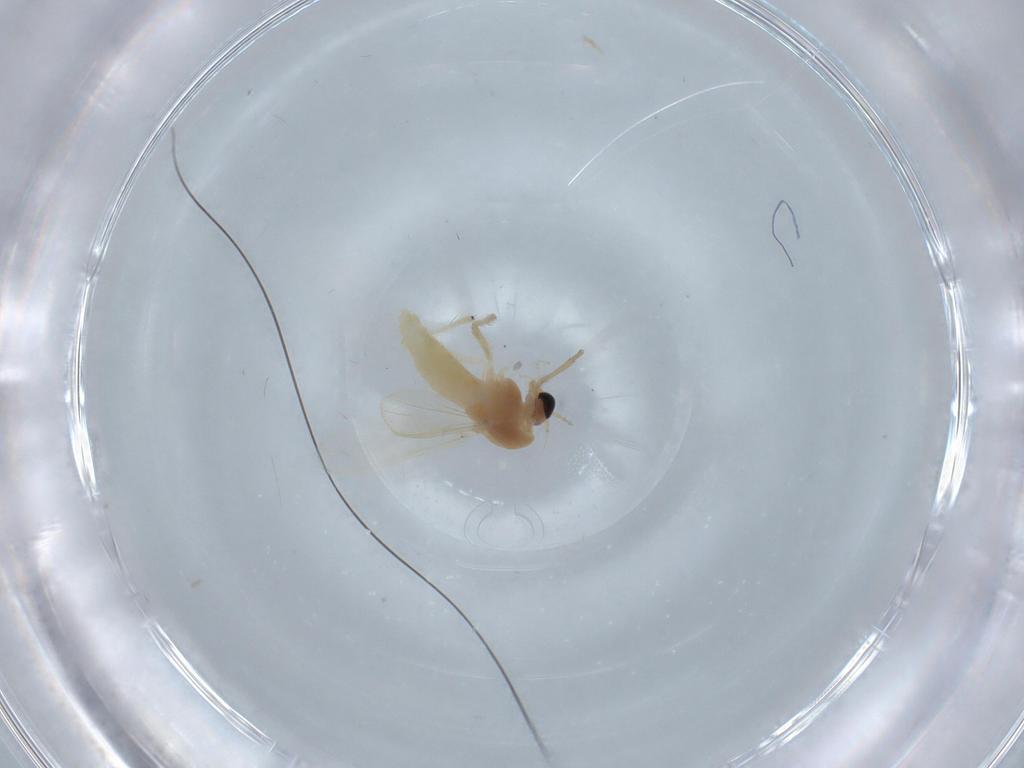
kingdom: Animalia
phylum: Arthropoda
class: Insecta
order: Diptera
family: Chironomidae
